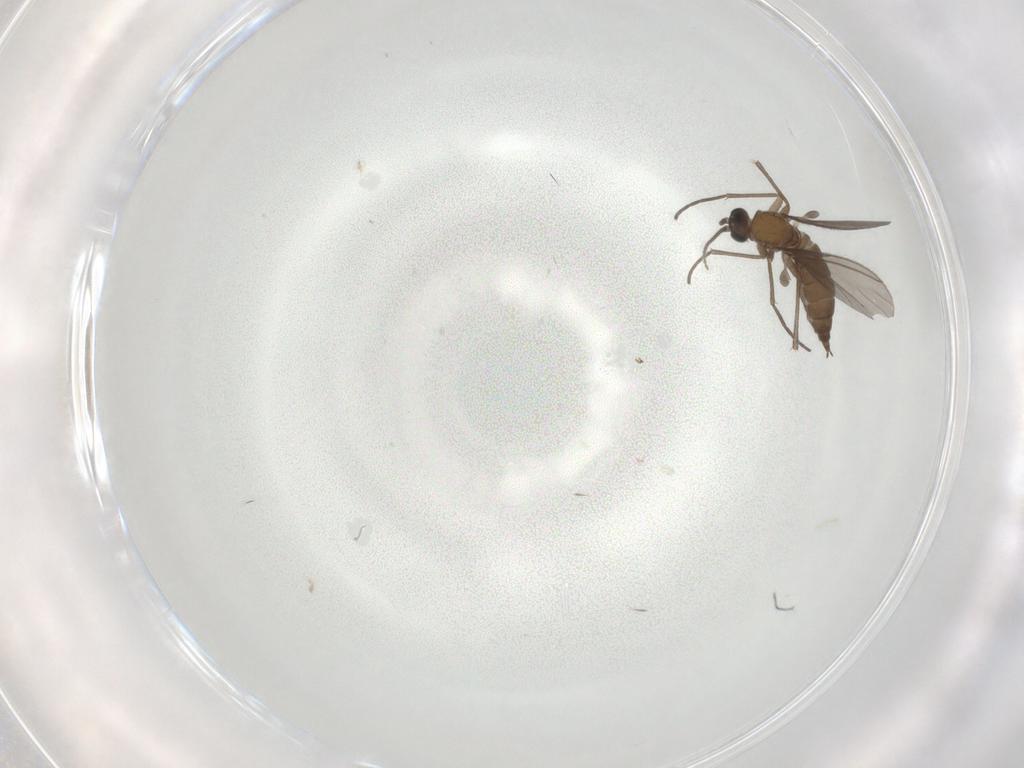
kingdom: Animalia
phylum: Arthropoda
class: Insecta
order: Diptera
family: Sciaridae
